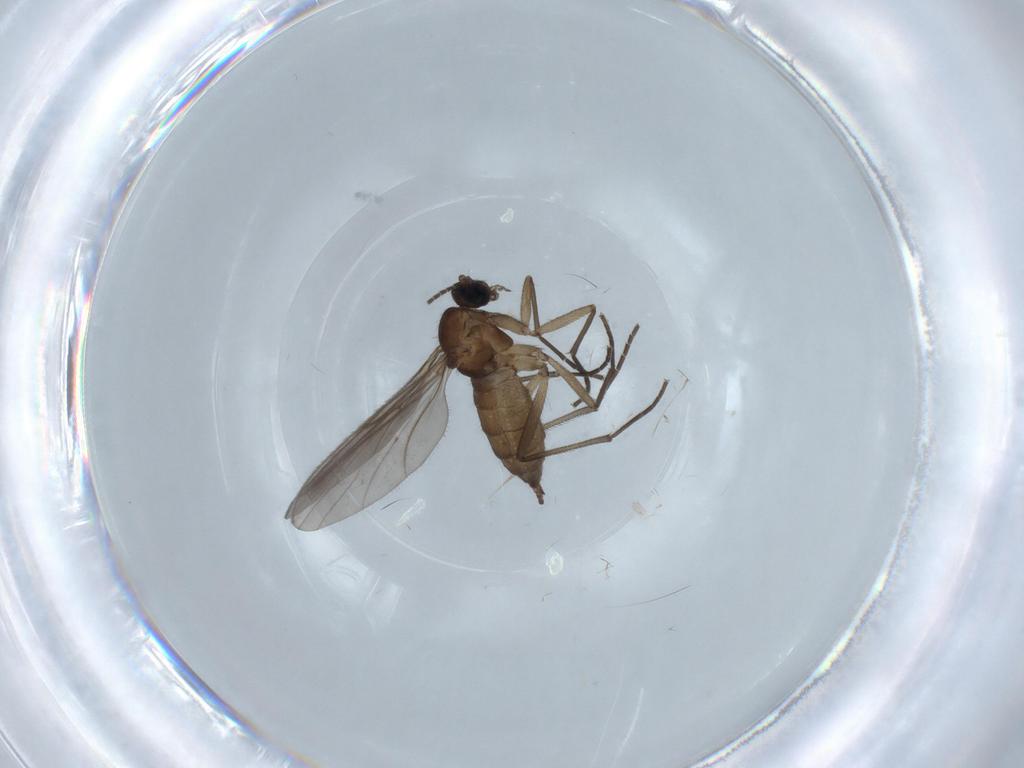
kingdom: Animalia
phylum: Arthropoda
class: Insecta
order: Diptera
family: Sciaridae
